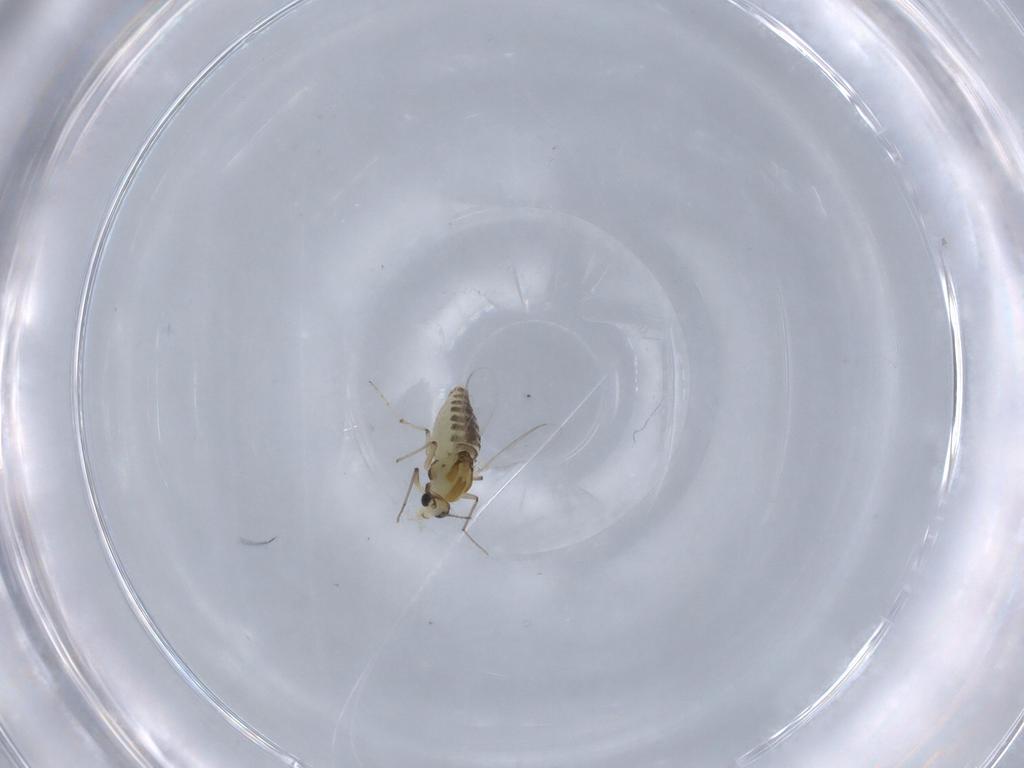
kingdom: Animalia
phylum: Arthropoda
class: Insecta
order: Diptera
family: Chironomidae
